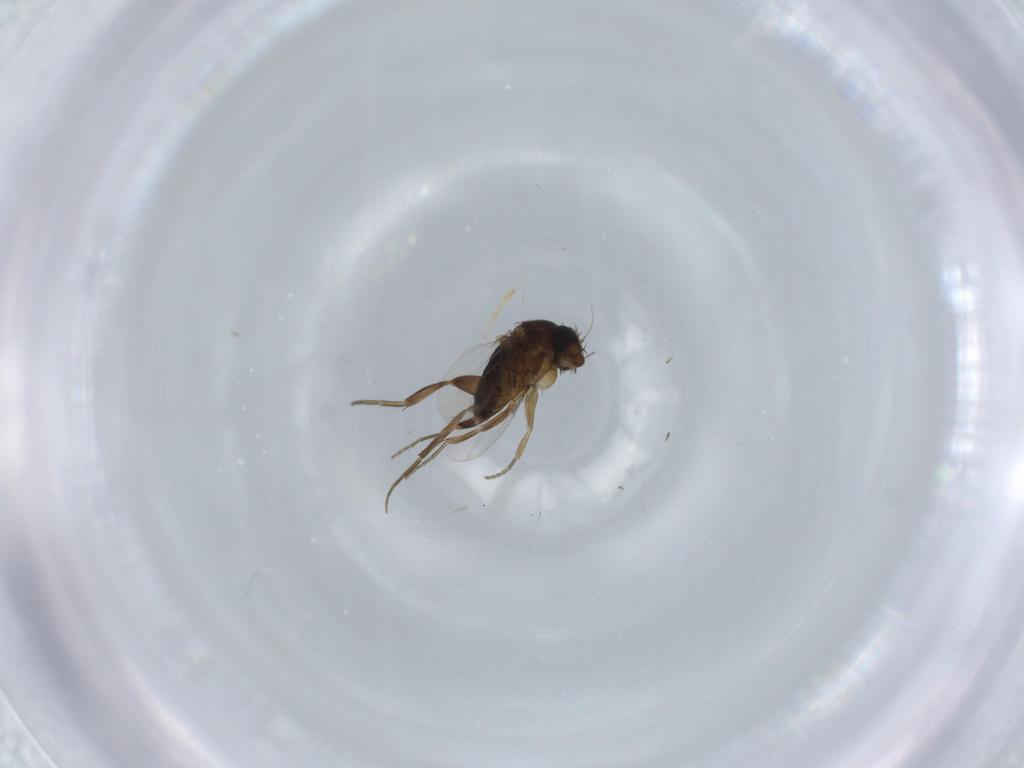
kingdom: Animalia
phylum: Arthropoda
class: Insecta
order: Diptera
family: Phoridae
